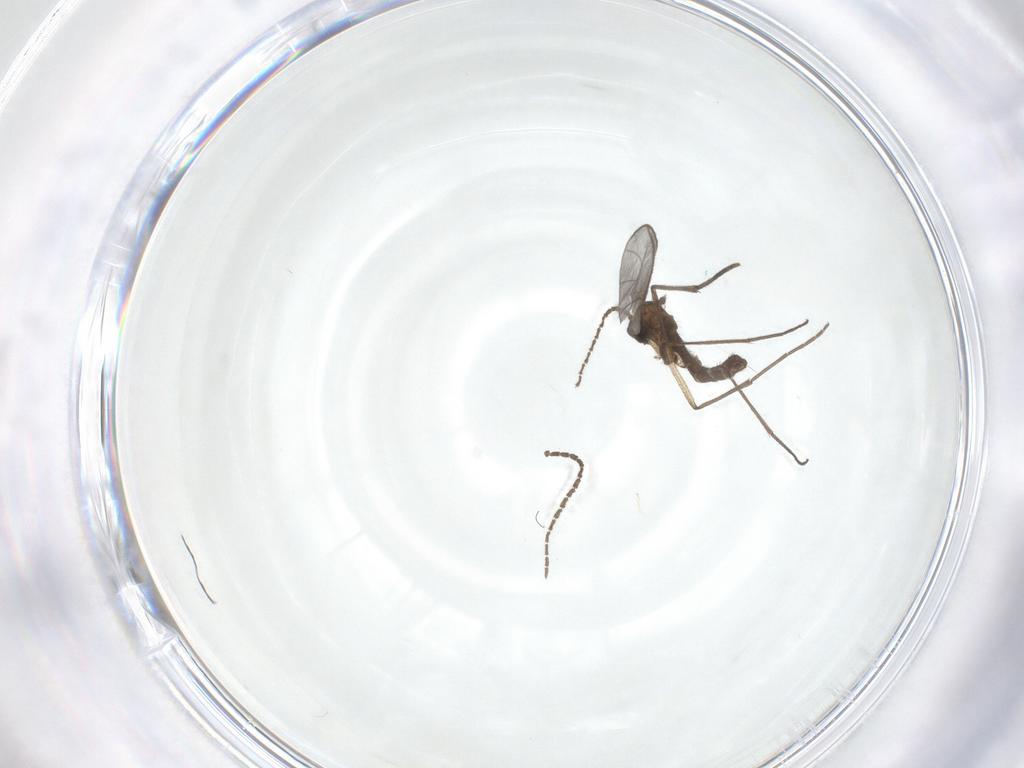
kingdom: Animalia
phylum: Arthropoda
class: Insecta
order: Diptera
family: Sciaridae
